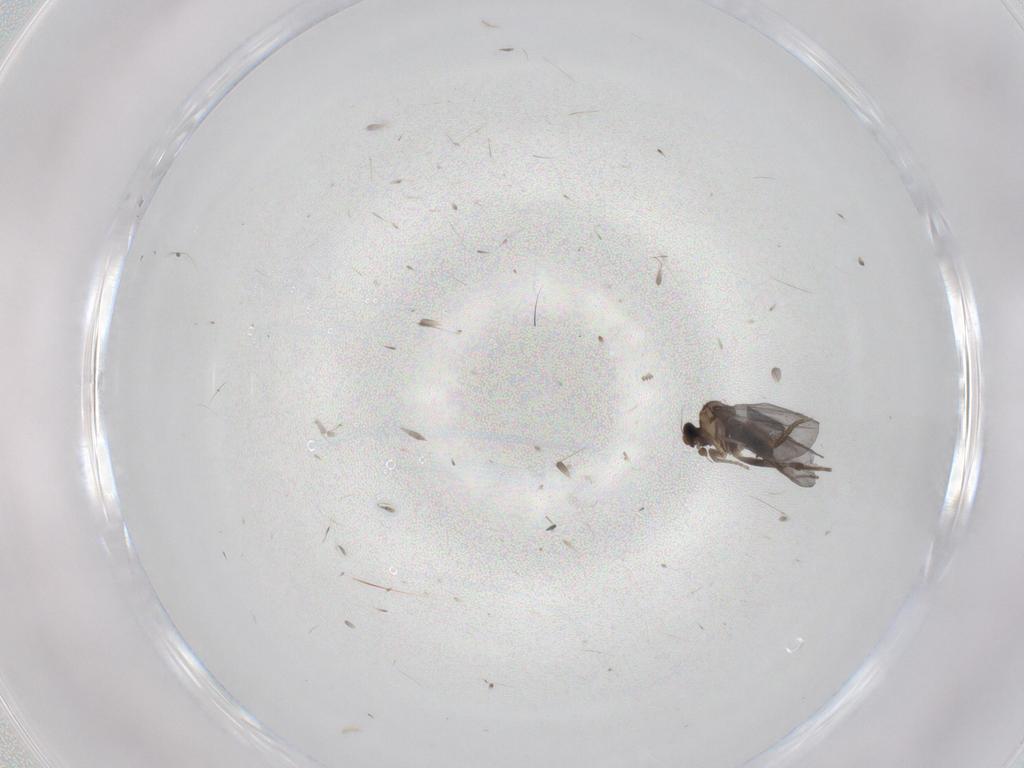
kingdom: Animalia
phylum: Arthropoda
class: Insecta
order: Diptera
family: Phoridae
